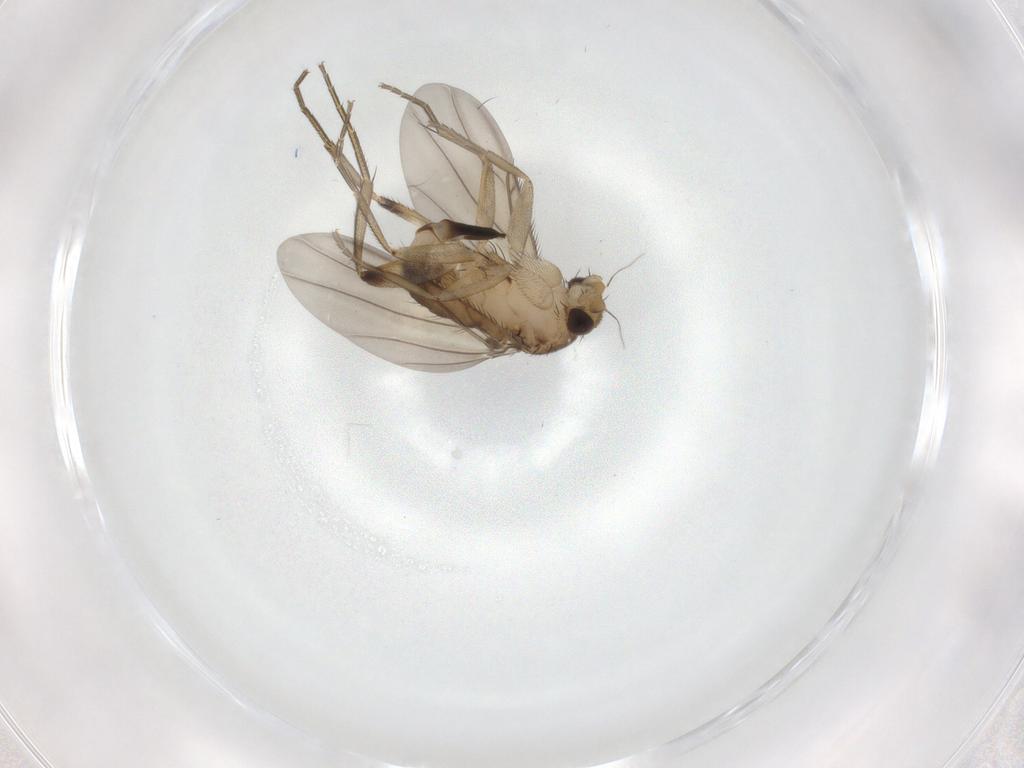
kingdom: Animalia
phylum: Arthropoda
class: Insecta
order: Diptera
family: Phoridae
